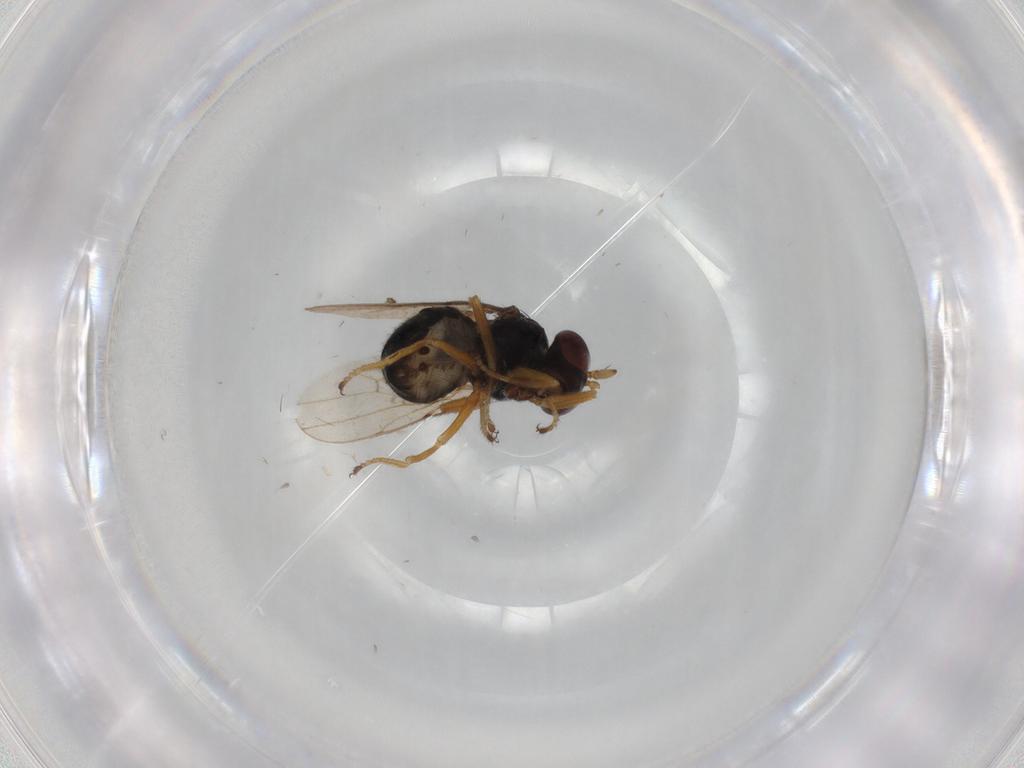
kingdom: Animalia
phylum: Arthropoda
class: Insecta
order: Diptera
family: Ephydridae
